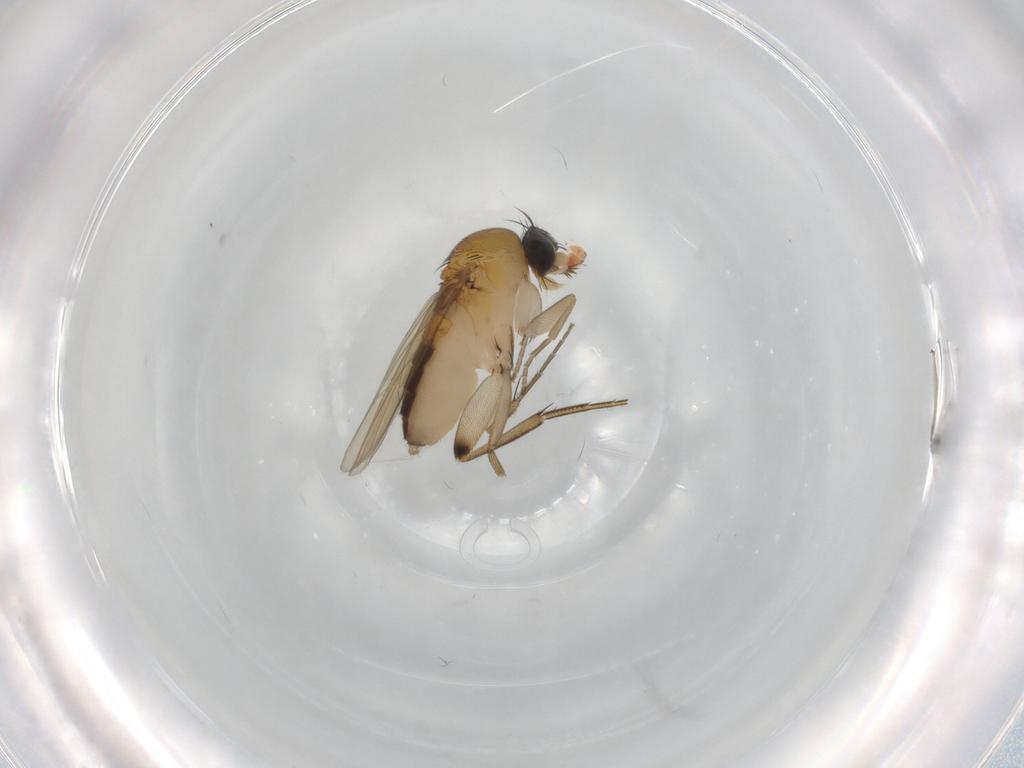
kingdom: Animalia
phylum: Arthropoda
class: Insecta
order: Diptera
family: Phoridae
